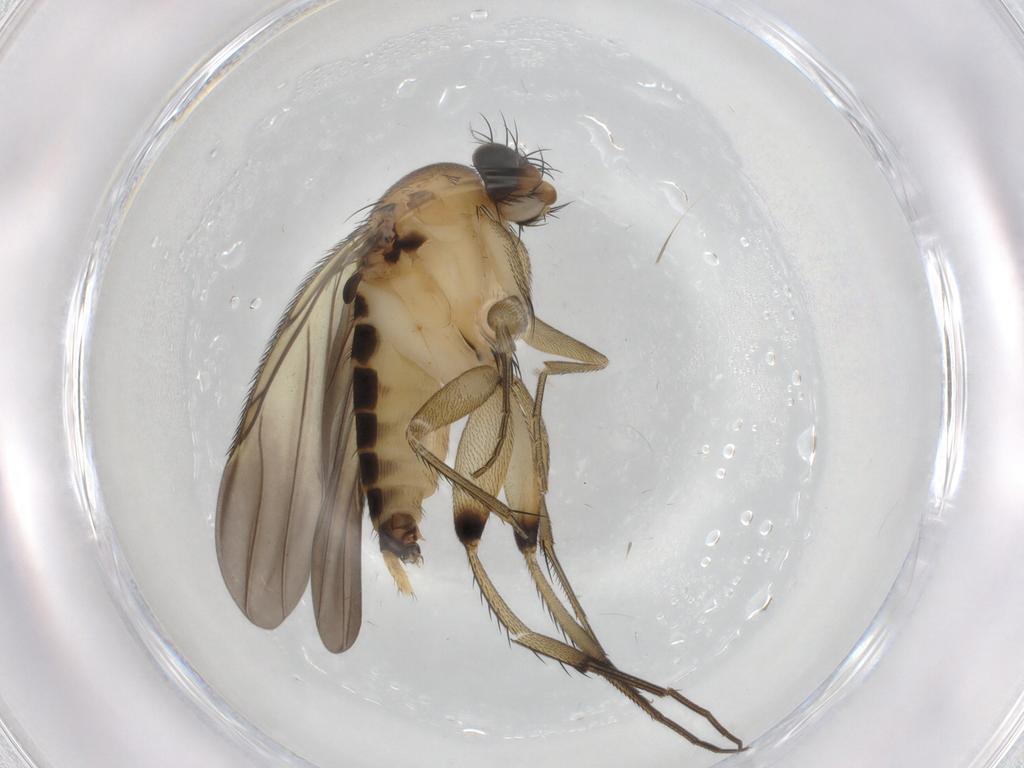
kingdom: Animalia
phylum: Arthropoda
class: Insecta
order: Diptera
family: Phoridae
